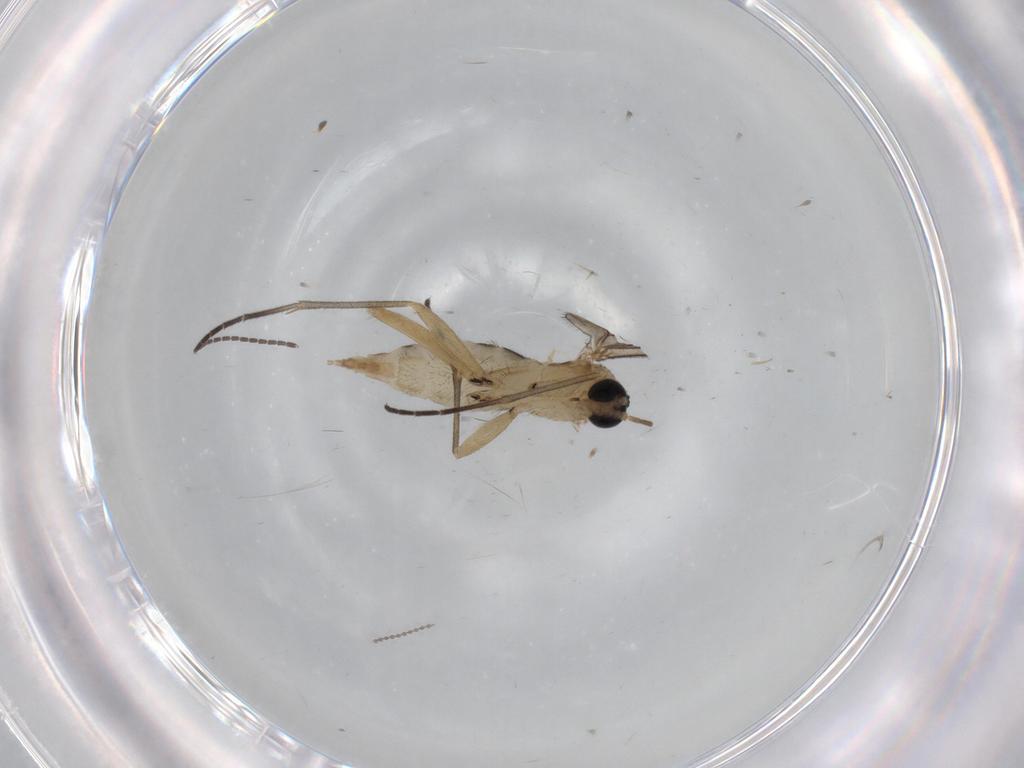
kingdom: Animalia
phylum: Arthropoda
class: Insecta
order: Diptera
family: Sciaridae
